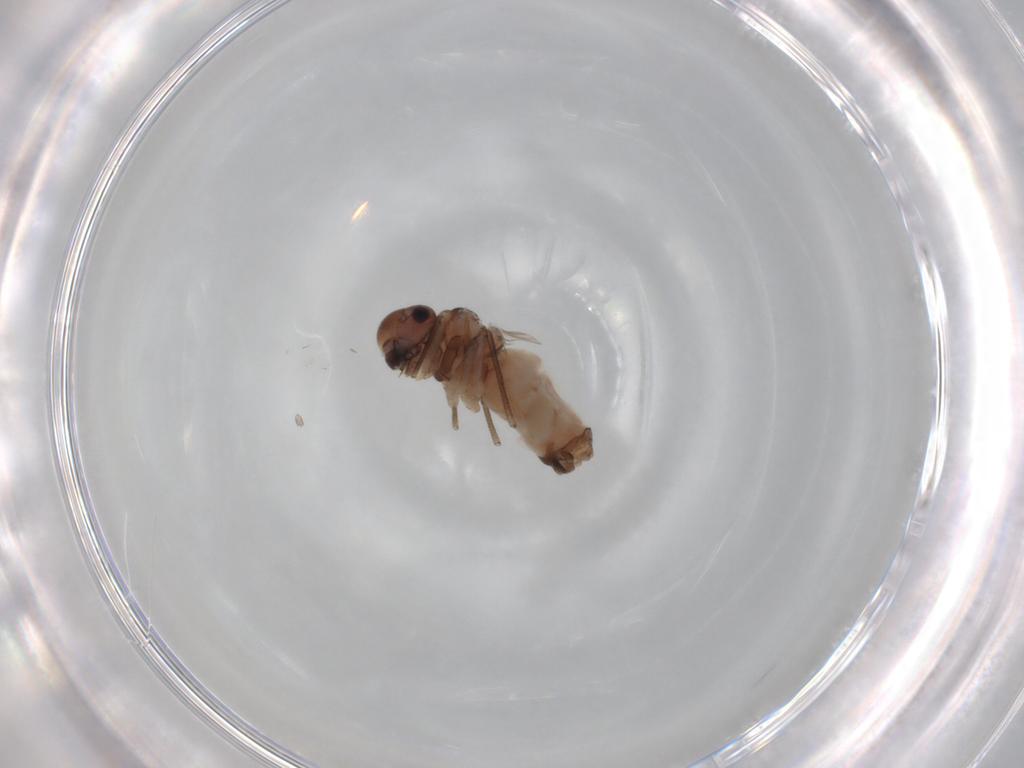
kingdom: Animalia
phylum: Arthropoda
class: Insecta
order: Psocodea
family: Peripsocidae
